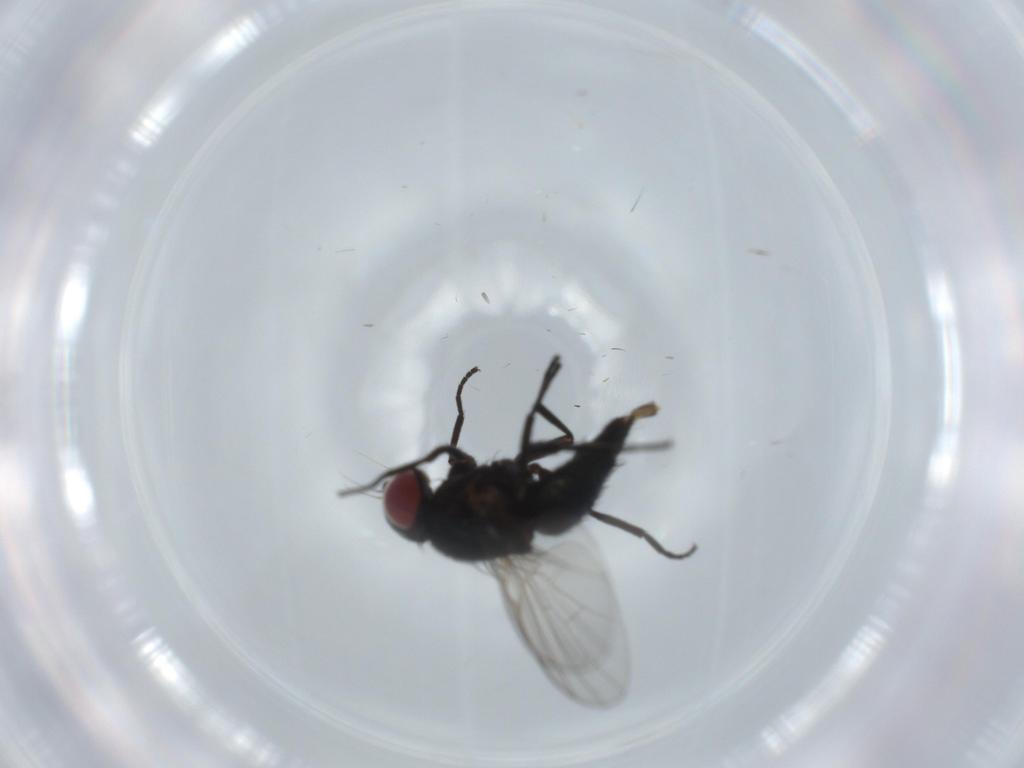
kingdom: Animalia
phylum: Arthropoda
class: Insecta
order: Diptera
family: Agromyzidae
